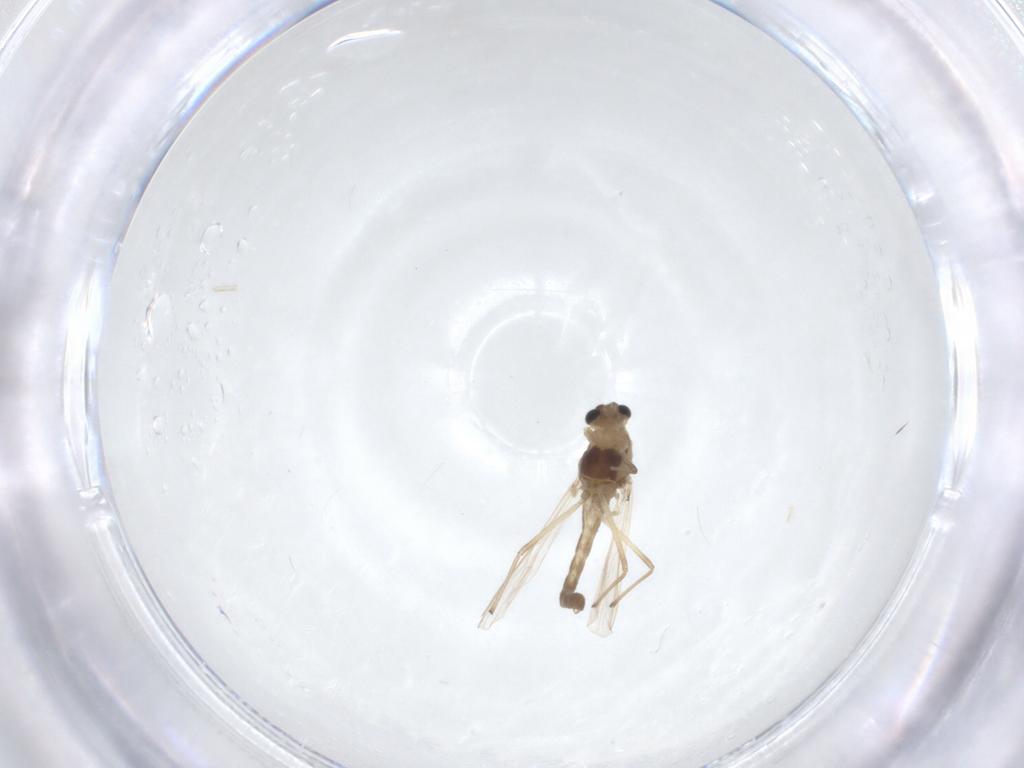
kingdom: Animalia
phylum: Arthropoda
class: Insecta
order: Diptera
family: Chironomidae
